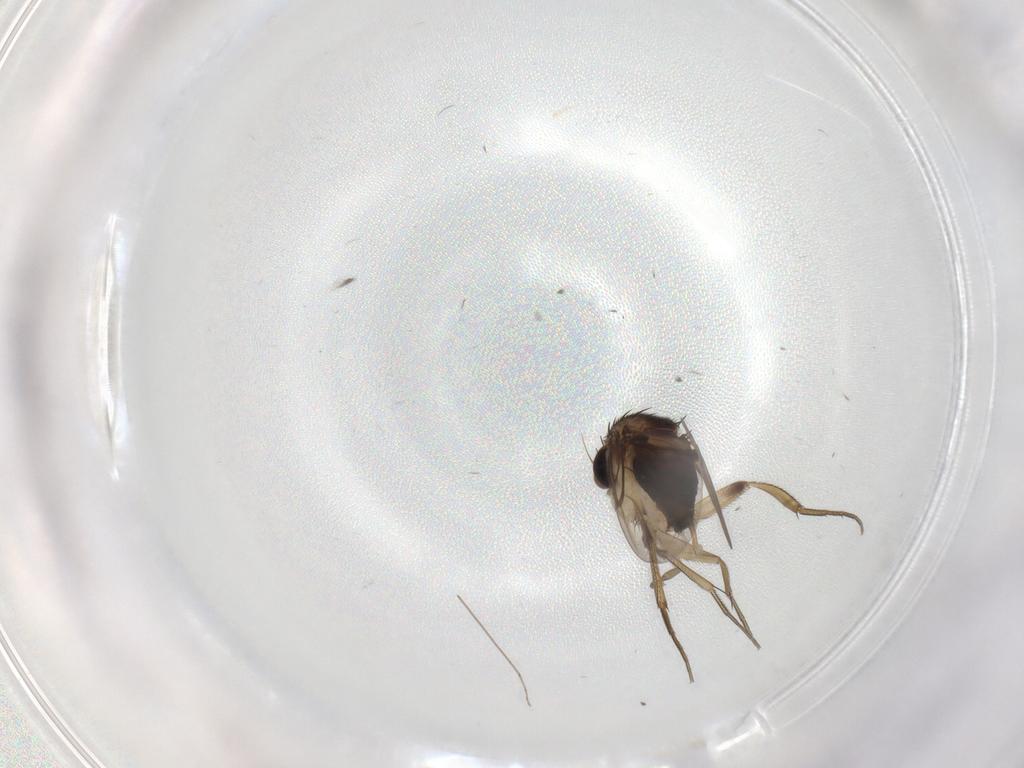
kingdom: Animalia
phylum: Arthropoda
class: Insecta
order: Diptera
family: Phoridae
